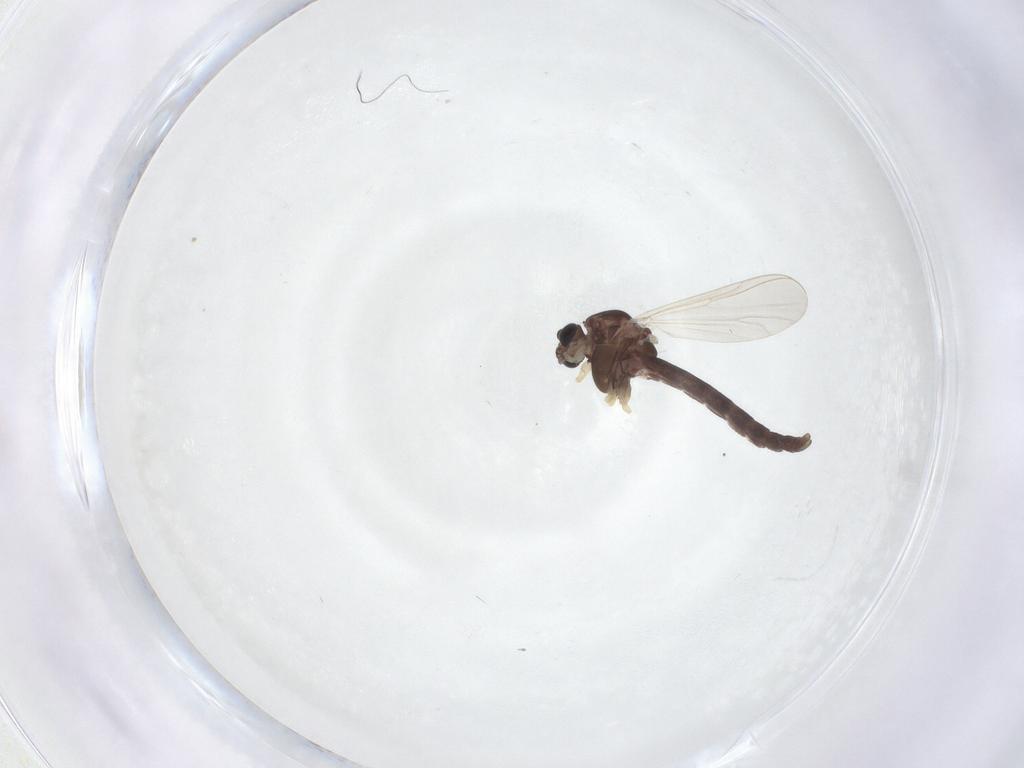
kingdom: Animalia
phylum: Arthropoda
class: Insecta
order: Diptera
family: Chironomidae
